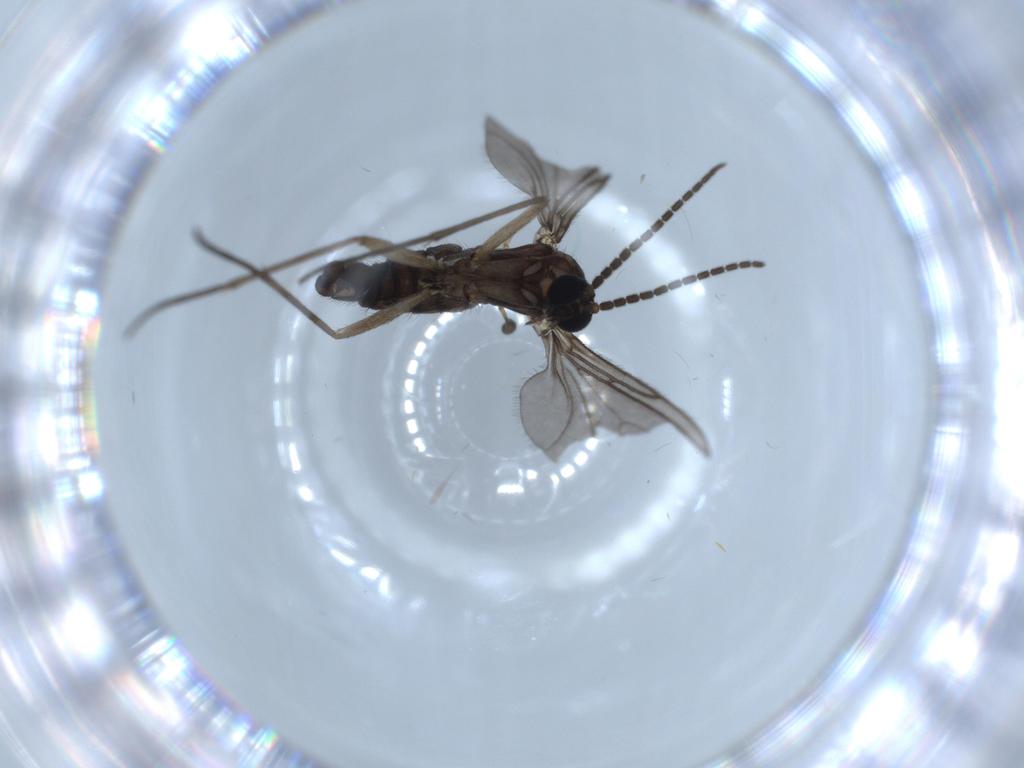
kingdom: Animalia
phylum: Arthropoda
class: Insecta
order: Diptera
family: Sciaridae
